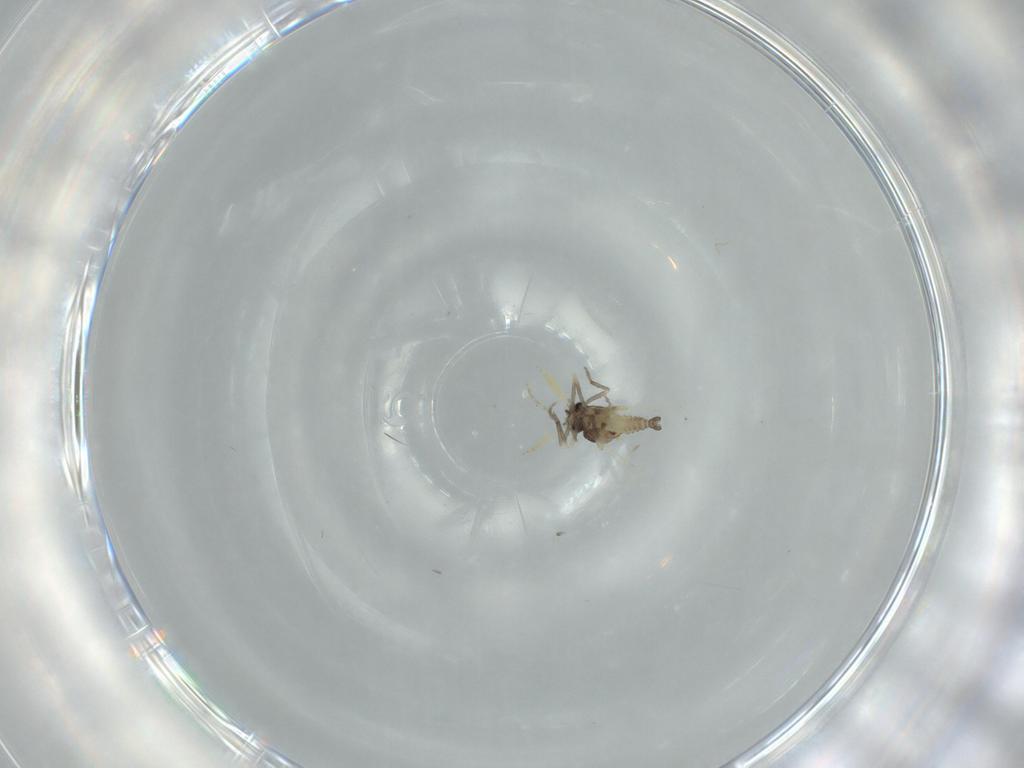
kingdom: Animalia
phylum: Arthropoda
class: Insecta
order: Diptera
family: Ceratopogonidae
